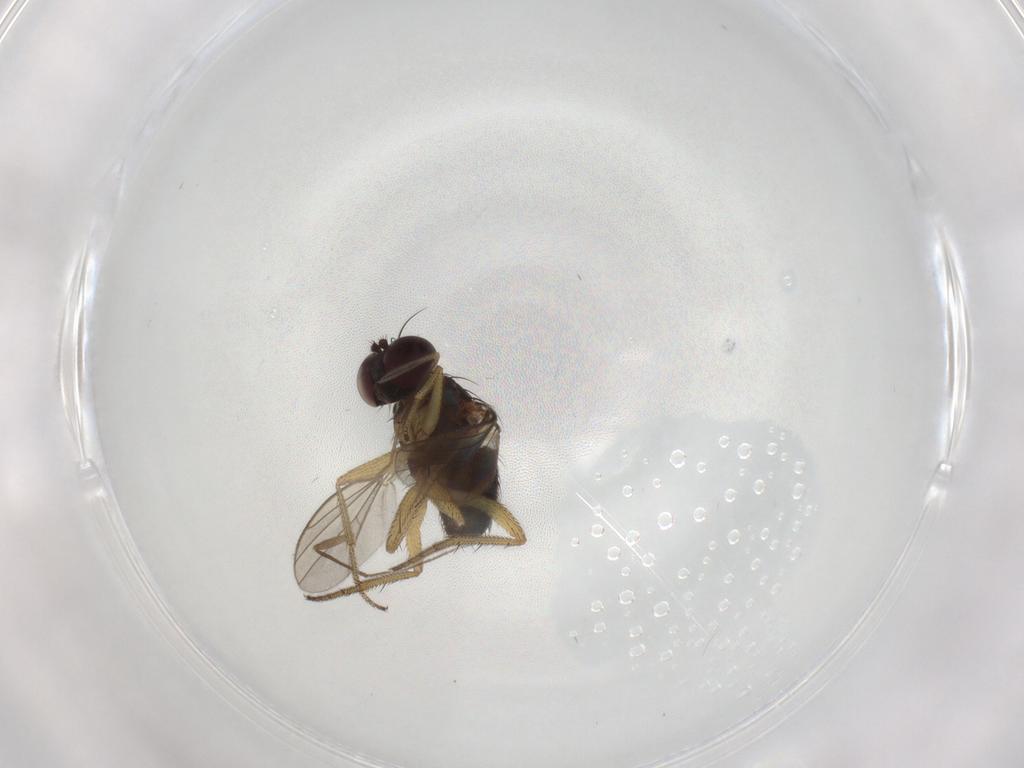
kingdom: Animalia
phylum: Arthropoda
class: Insecta
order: Diptera
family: Chironomidae
